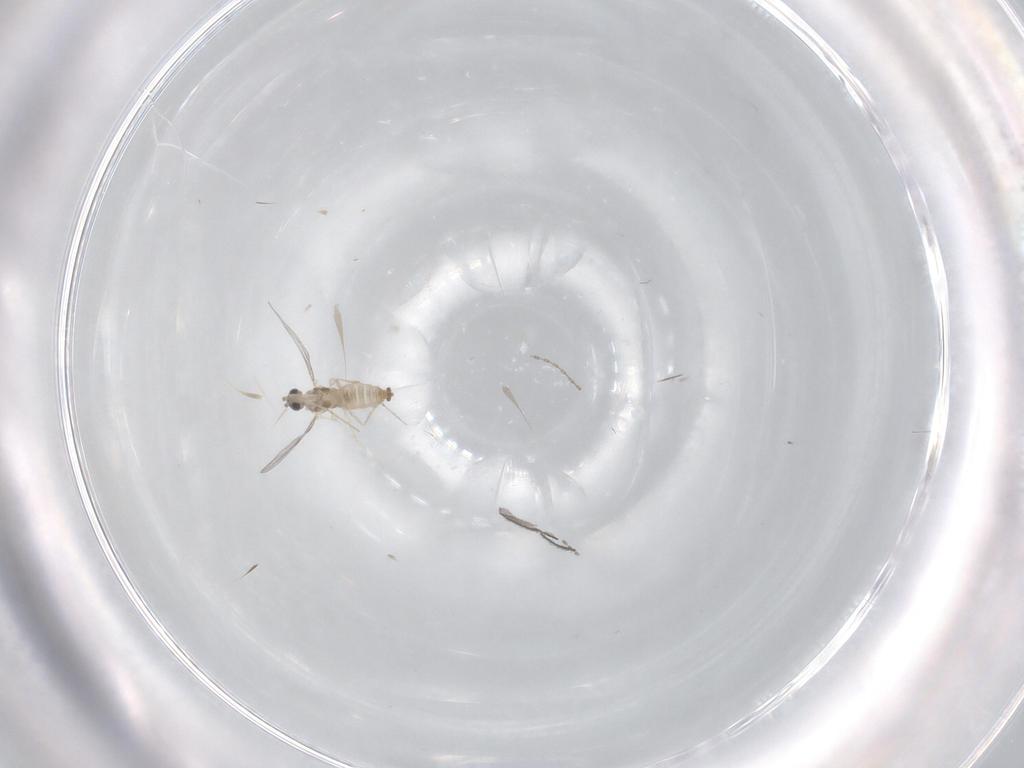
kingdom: Animalia
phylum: Arthropoda
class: Insecta
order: Diptera
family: Cecidomyiidae
